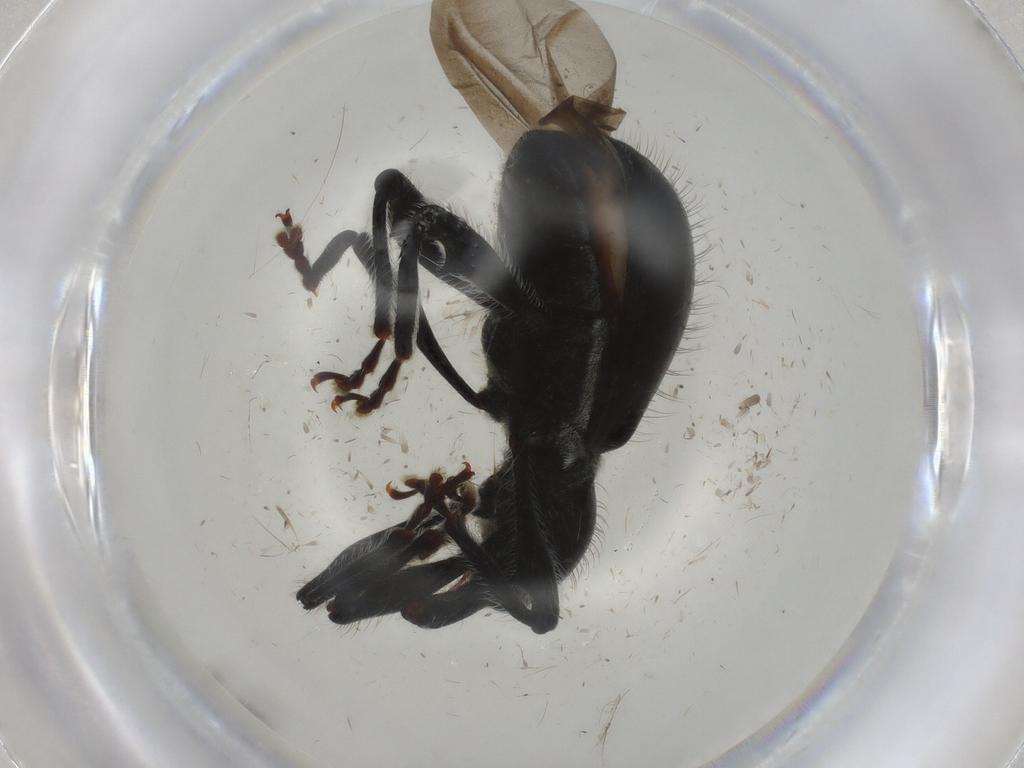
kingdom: Animalia
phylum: Arthropoda
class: Insecta
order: Coleoptera
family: Curculionidae
